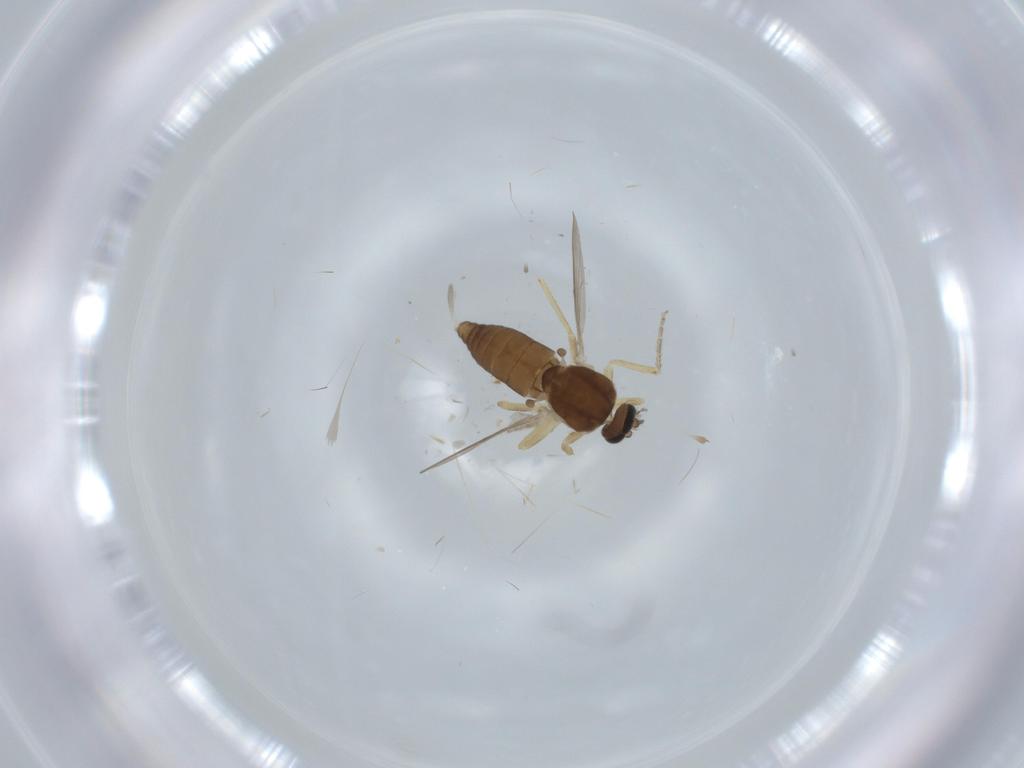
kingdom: Animalia
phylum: Arthropoda
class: Insecta
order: Diptera
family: Ceratopogonidae
